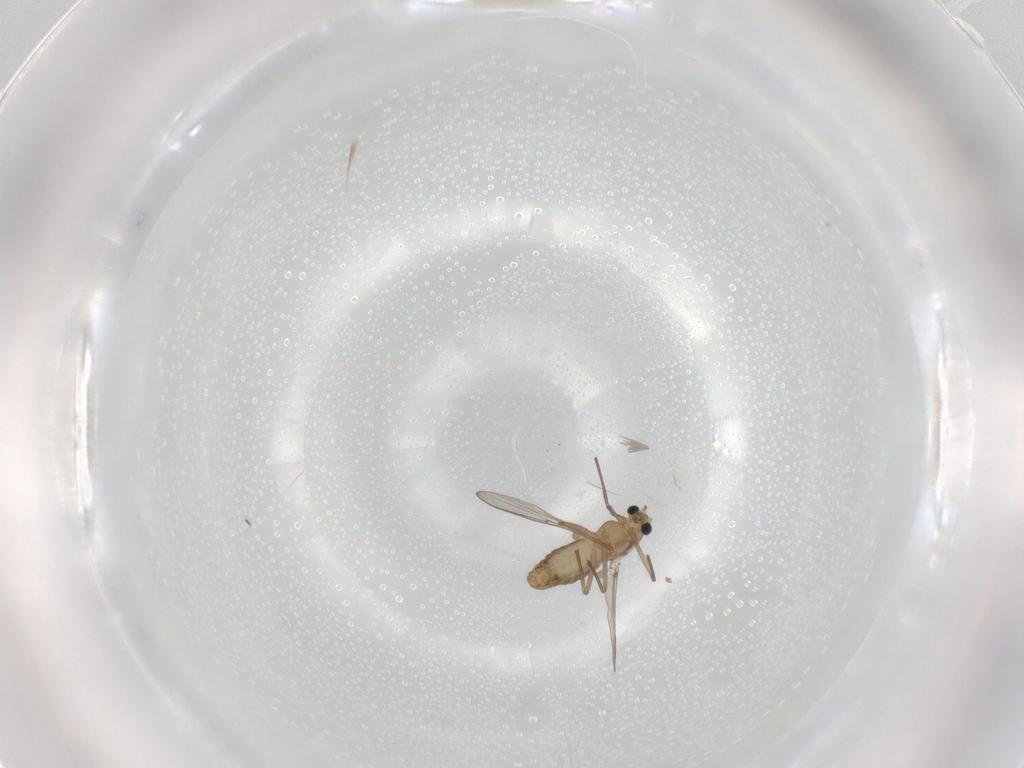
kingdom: Animalia
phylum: Arthropoda
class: Insecta
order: Diptera
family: Chironomidae
